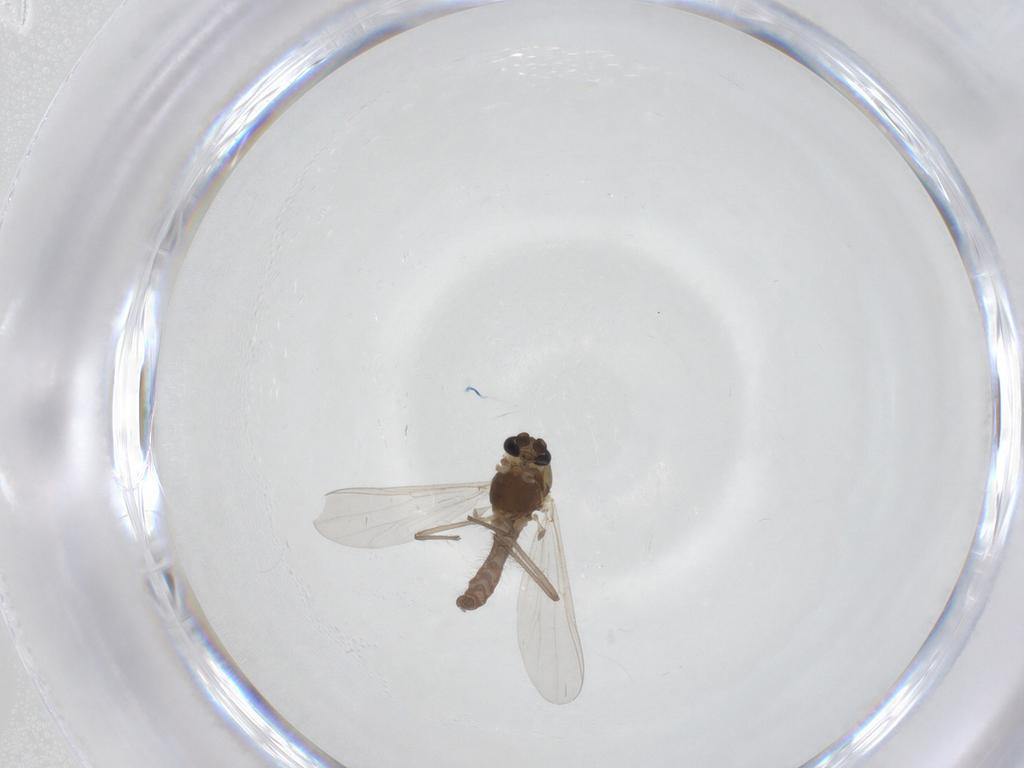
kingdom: Animalia
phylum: Arthropoda
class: Insecta
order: Diptera
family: Chironomidae
